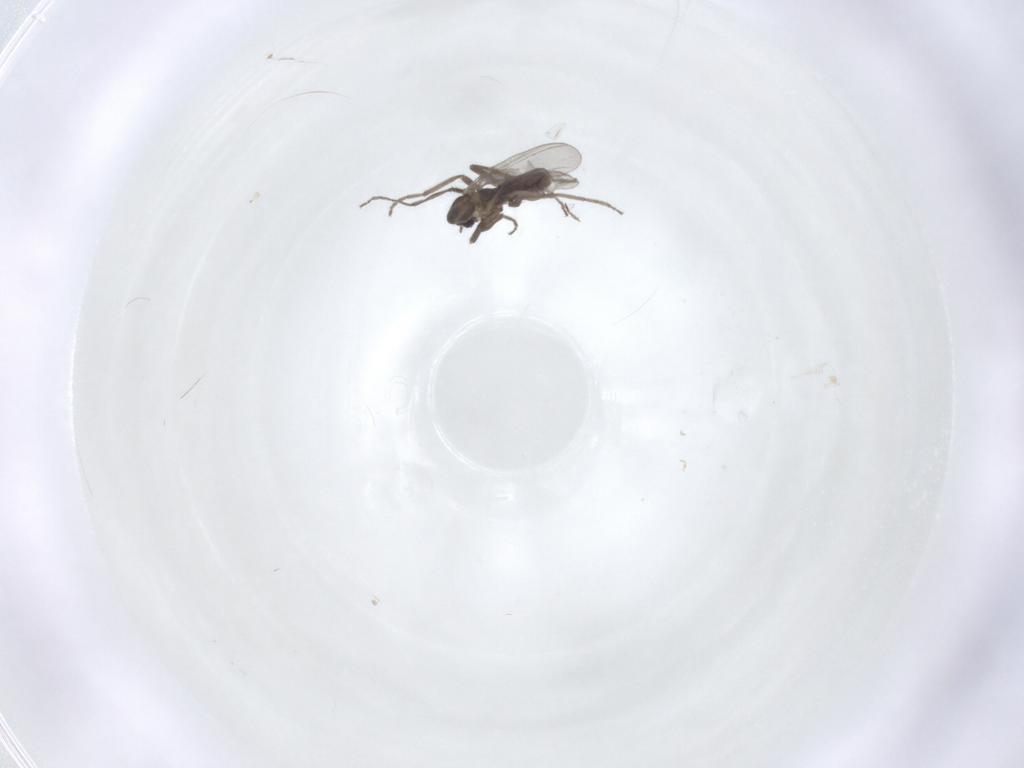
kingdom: Animalia
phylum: Arthropoda
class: Insecta
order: Diptera
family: Chironomidae
